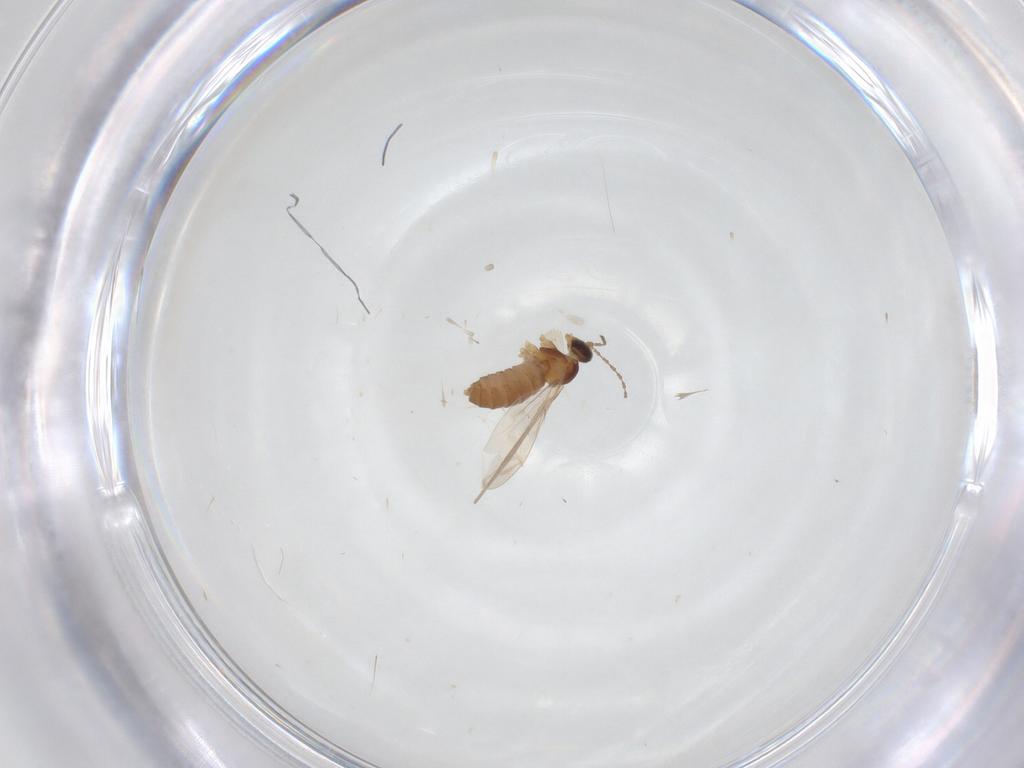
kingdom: Animalia
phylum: Arthropoda
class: Insecta
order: Diptera
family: Cecidomyiidae
